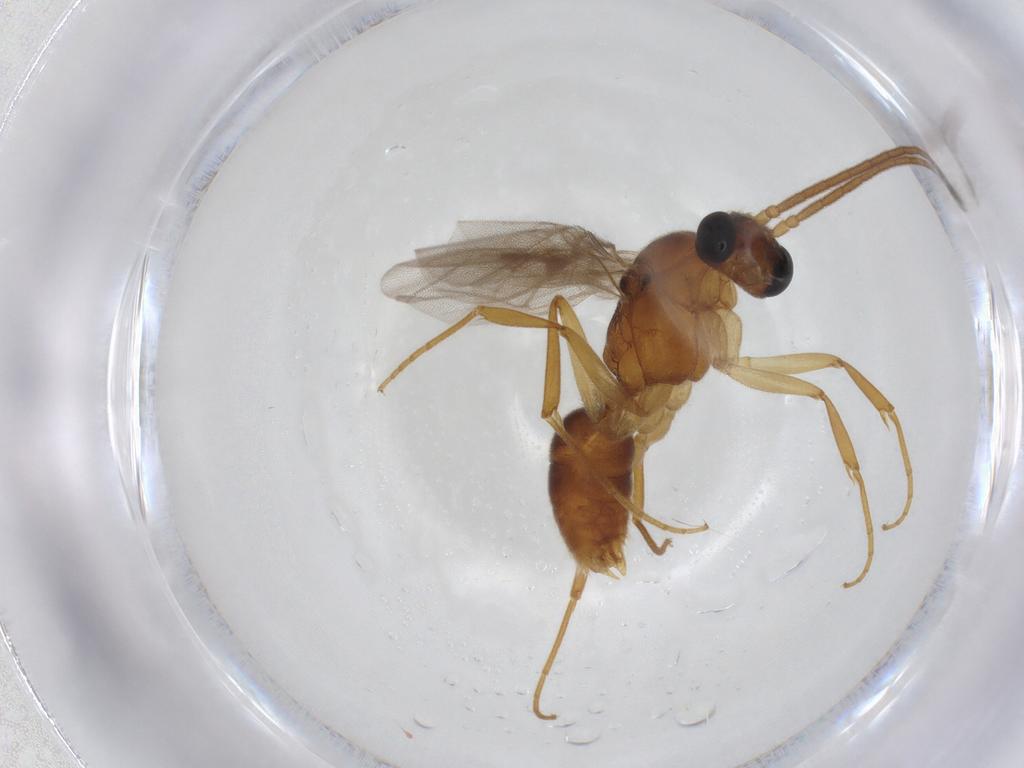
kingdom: Animalia
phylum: Arthropoda
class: Insecta
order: Hymenoptera
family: Formicidae
